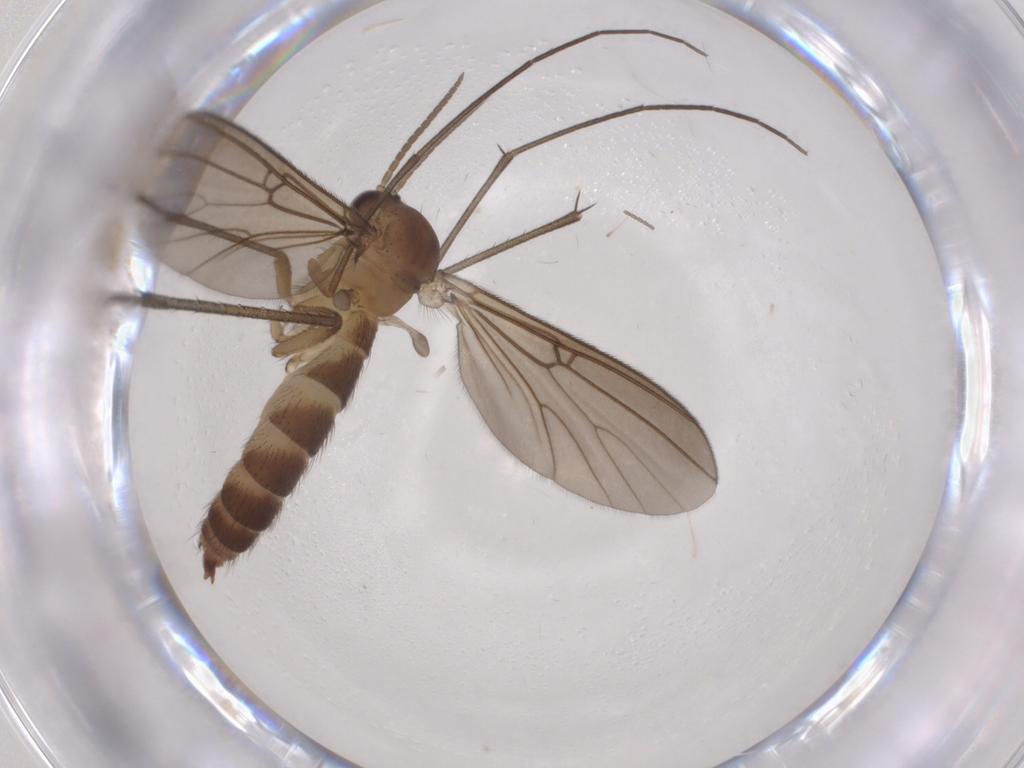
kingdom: Animalia
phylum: Arthropoda
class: Insecta
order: Diptera
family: Chironomidae
